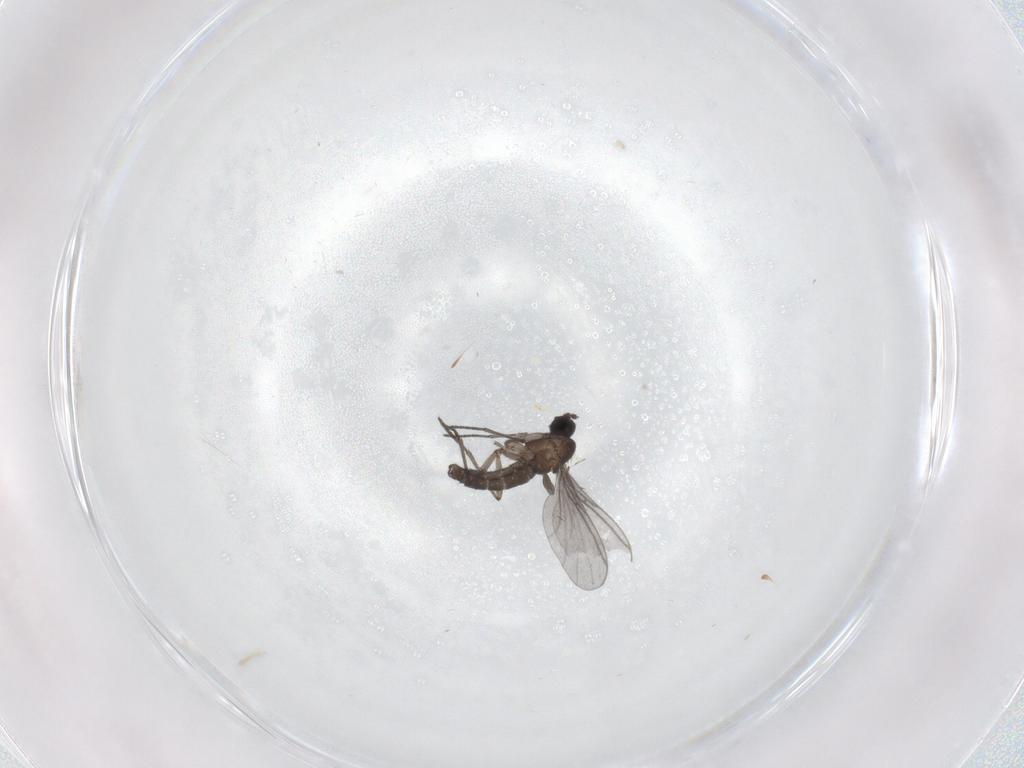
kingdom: Animalia
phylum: Arthropoda
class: Insecta
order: Diptera
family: Sciaridae
